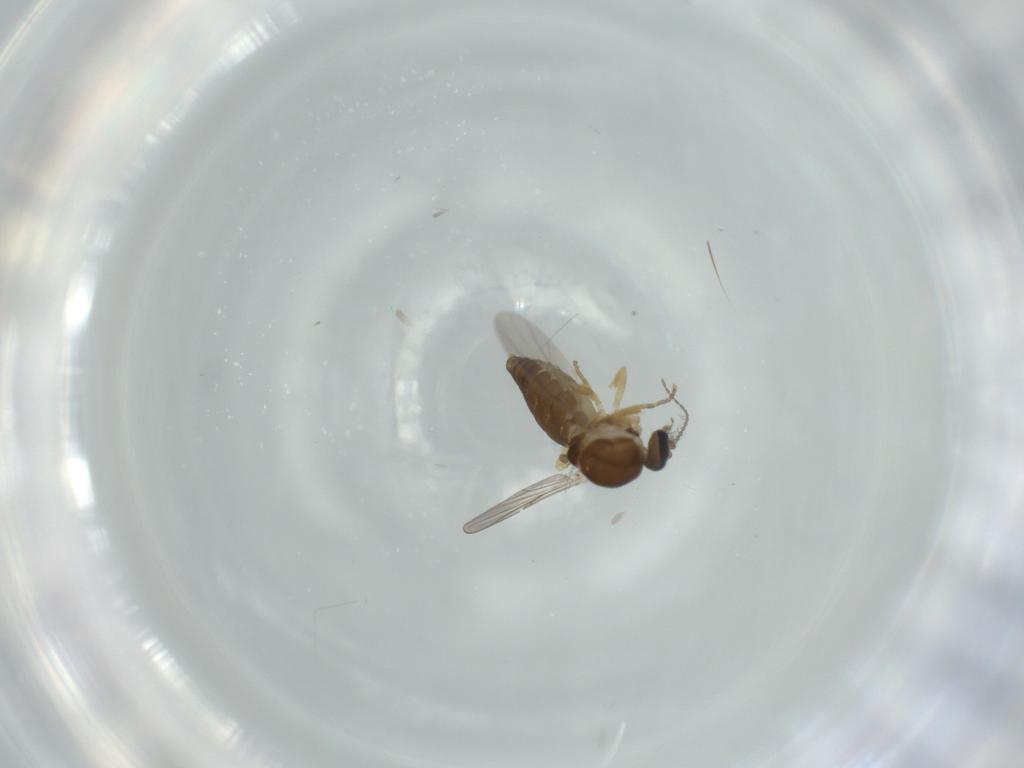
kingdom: Animalia
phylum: Arthropoda
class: Insecta
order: Diptera
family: Ceratopogonidae
